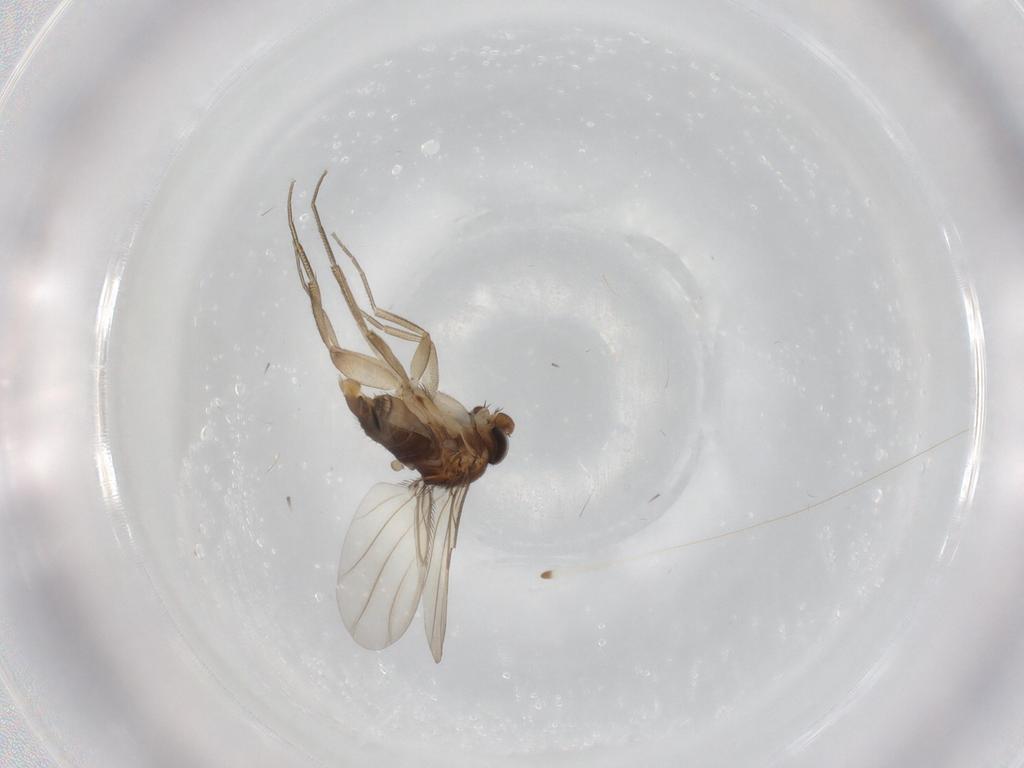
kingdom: Animalia
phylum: Arthropoda
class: Insecta
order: Diptera
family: Phoridae
